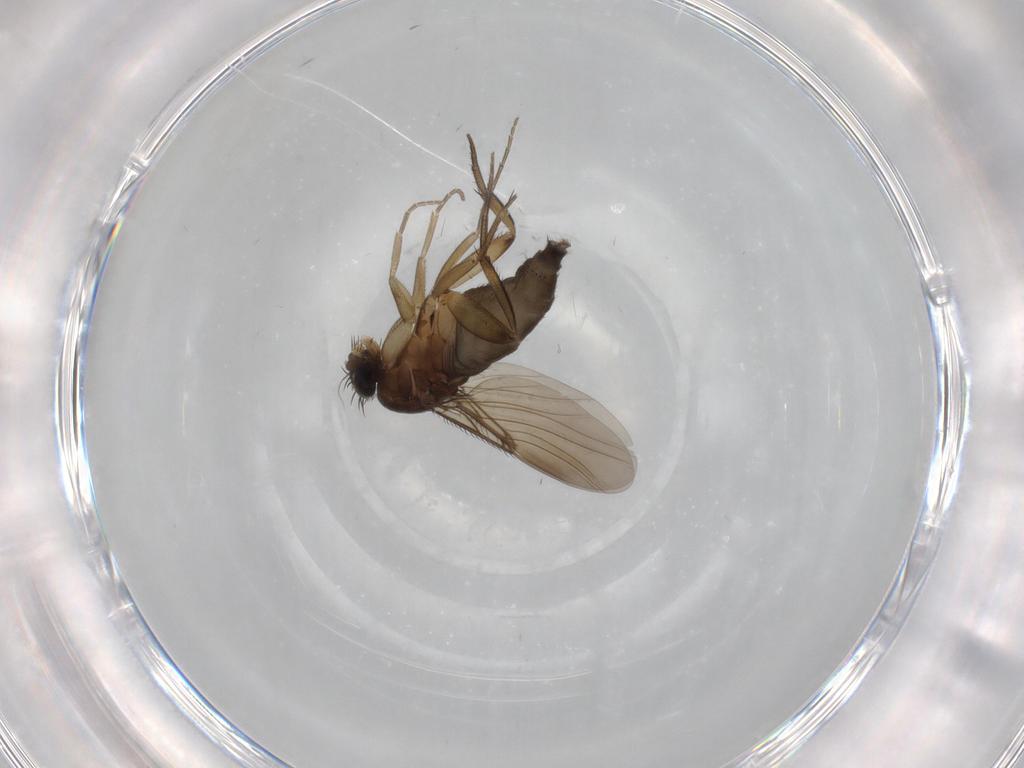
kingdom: Animalia
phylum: Arthropoda
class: Insecta
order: Diptera
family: Phoridae
